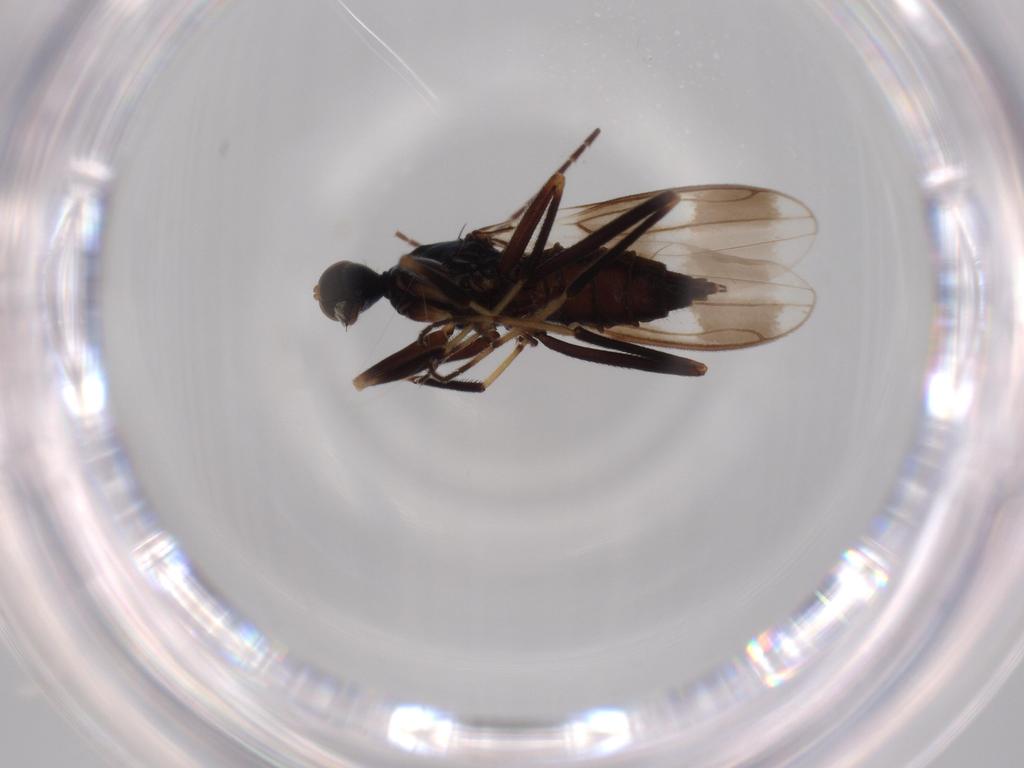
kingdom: Animalia
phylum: Arthropoda
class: Insecta
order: Diptera
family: Hybotidae
